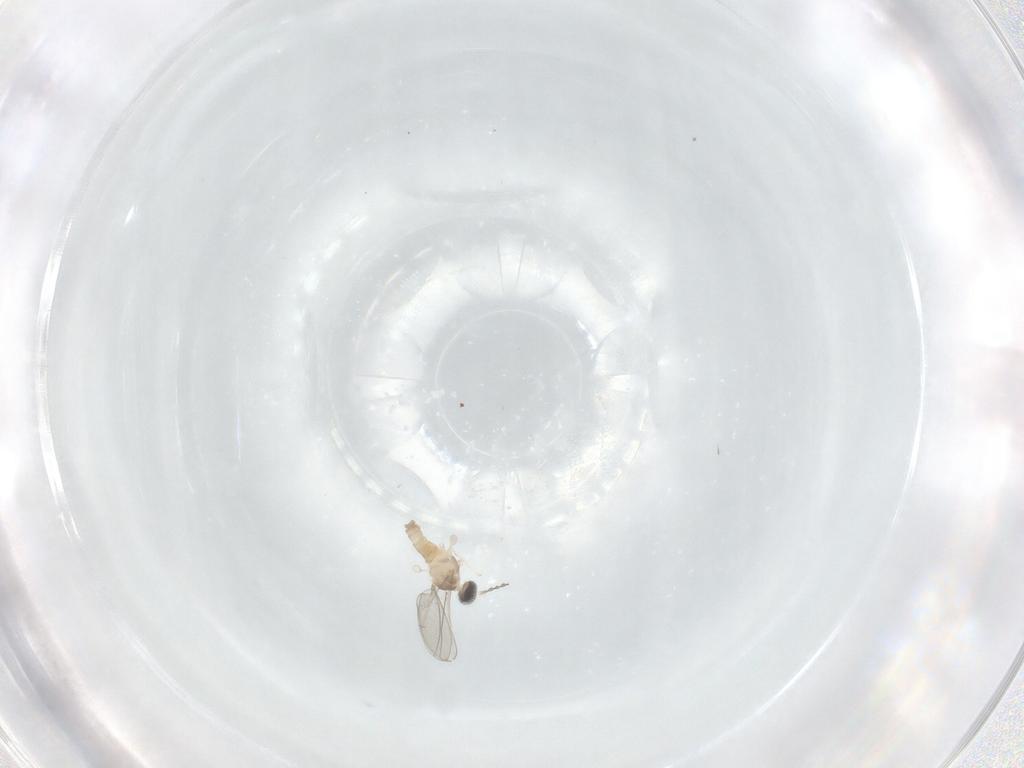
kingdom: Animalia
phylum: Arthropoda
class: Insecta
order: Diptera
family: Cecidomyiidae
